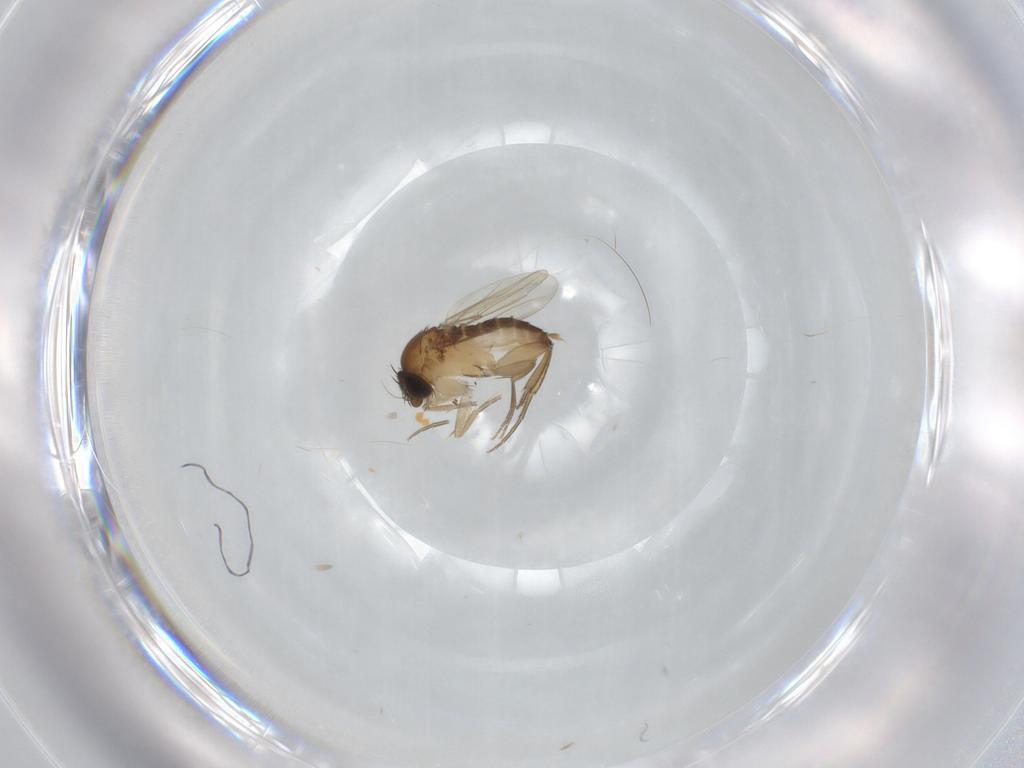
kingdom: Animalia
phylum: Arthropoda
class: Insecta
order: Diptera
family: Phoridae
